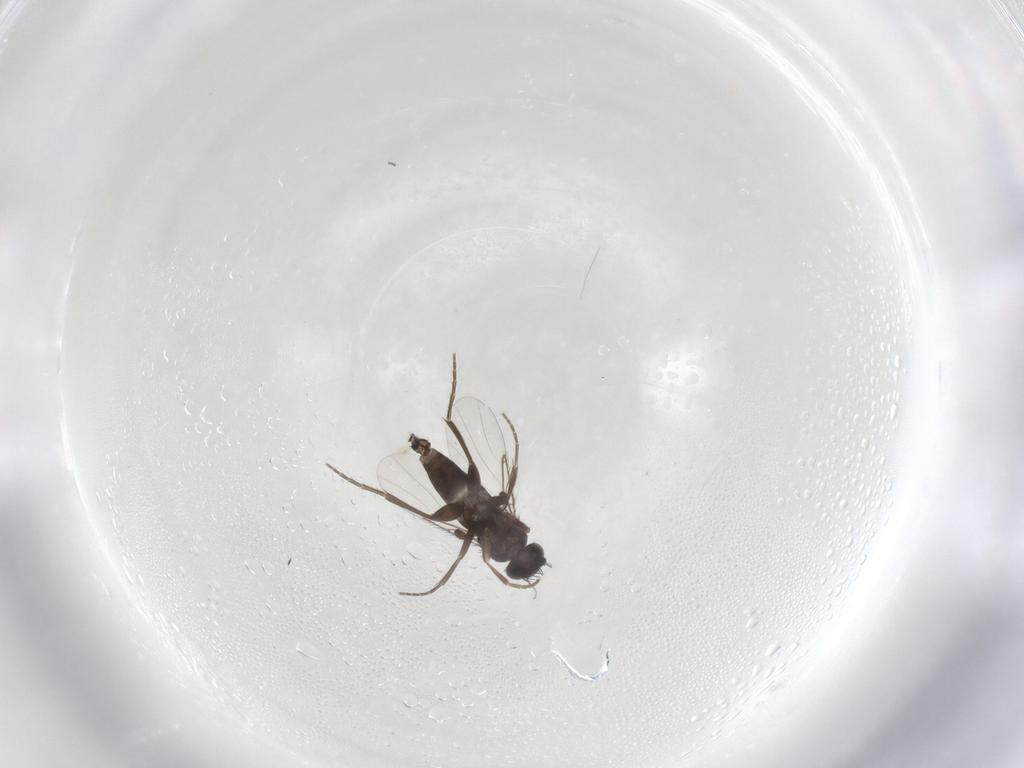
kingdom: Animalia
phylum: Arthropoda
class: Insecta
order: Diptera
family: Phoridae
